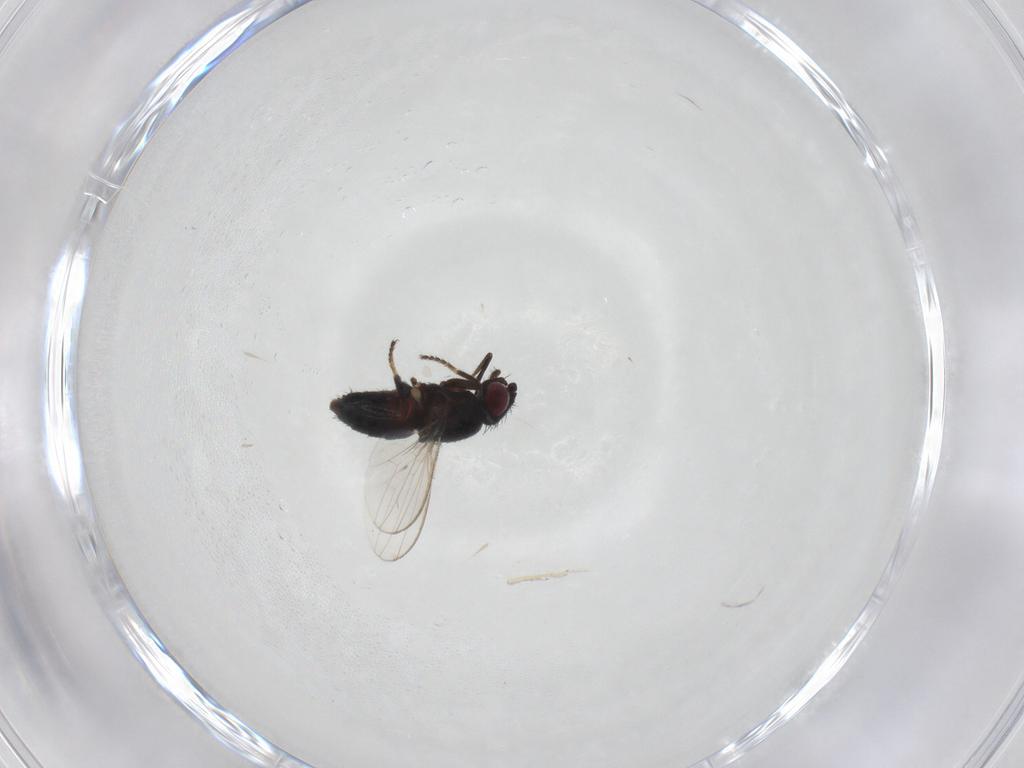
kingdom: Animalia
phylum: Arthropoda
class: Insecta
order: Diptera
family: Milichiidae
